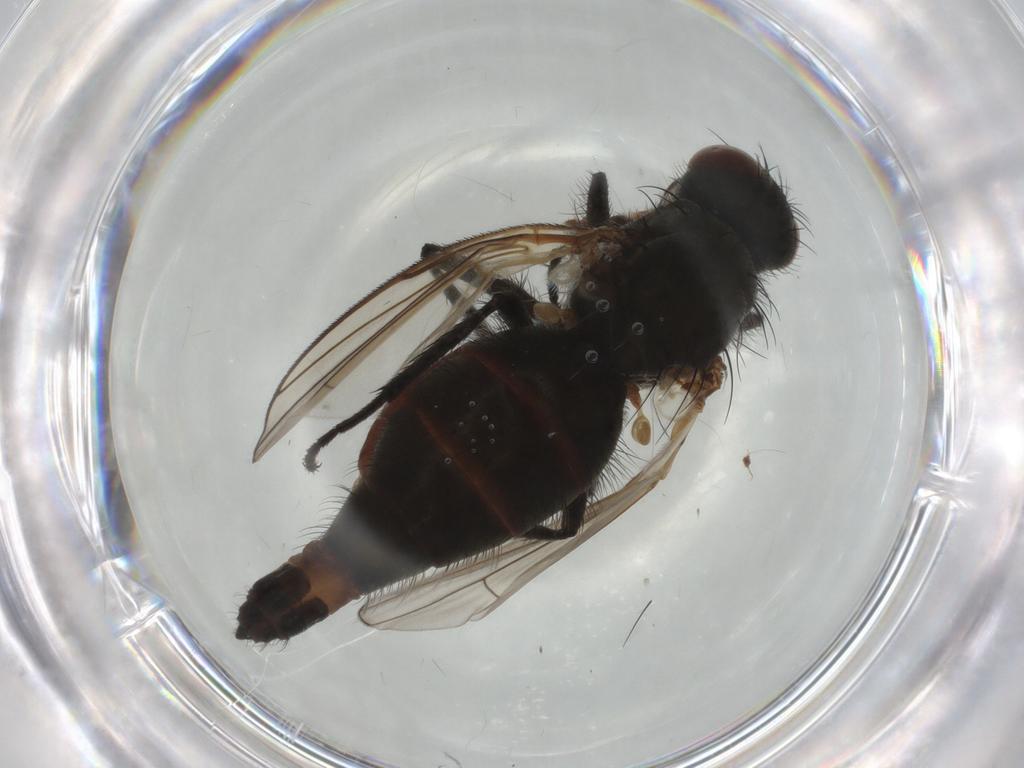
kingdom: Animalia
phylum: Arthropoda
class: Insecta
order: Diptera
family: Anthomyiidae
